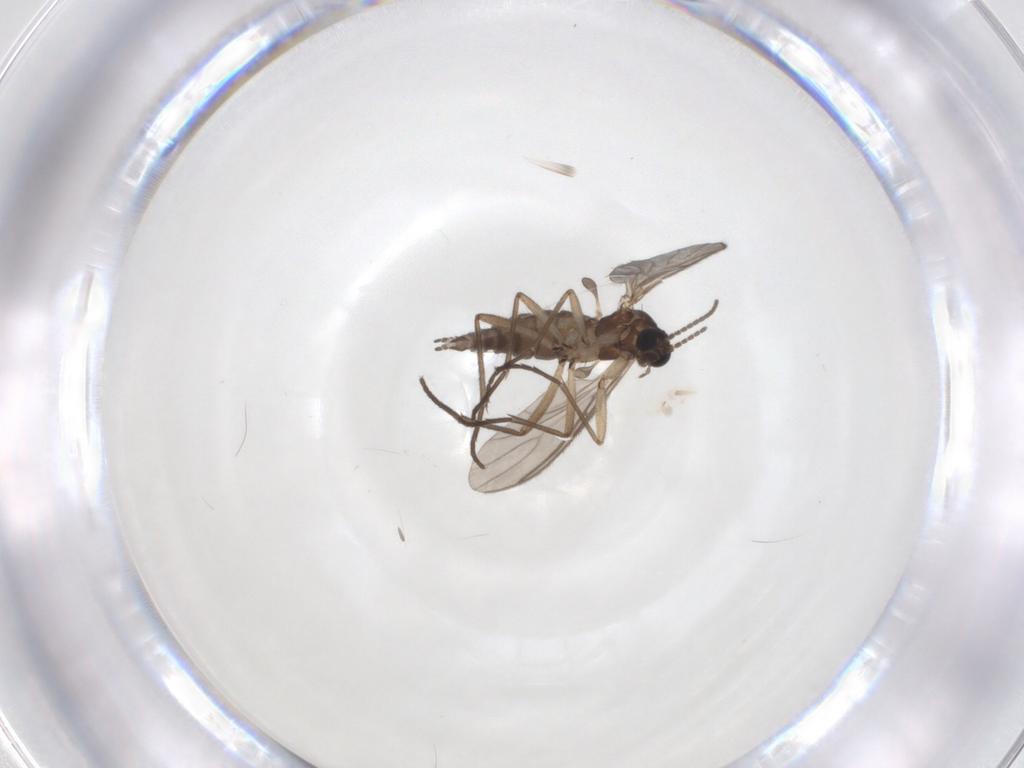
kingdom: Animalia
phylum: Arthropoda
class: Insecta
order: Diptera
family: Sciaridae
